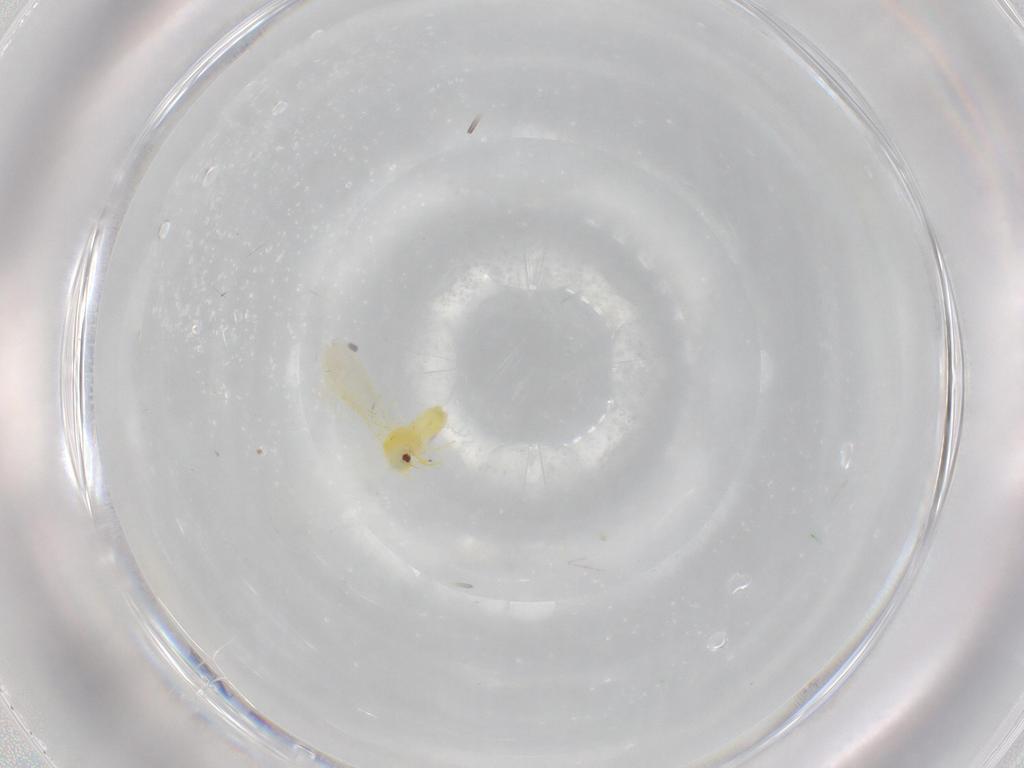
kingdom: Animalia
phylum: Arthropoda
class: Insecta
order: Hemiptera
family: Aleyrodidae
